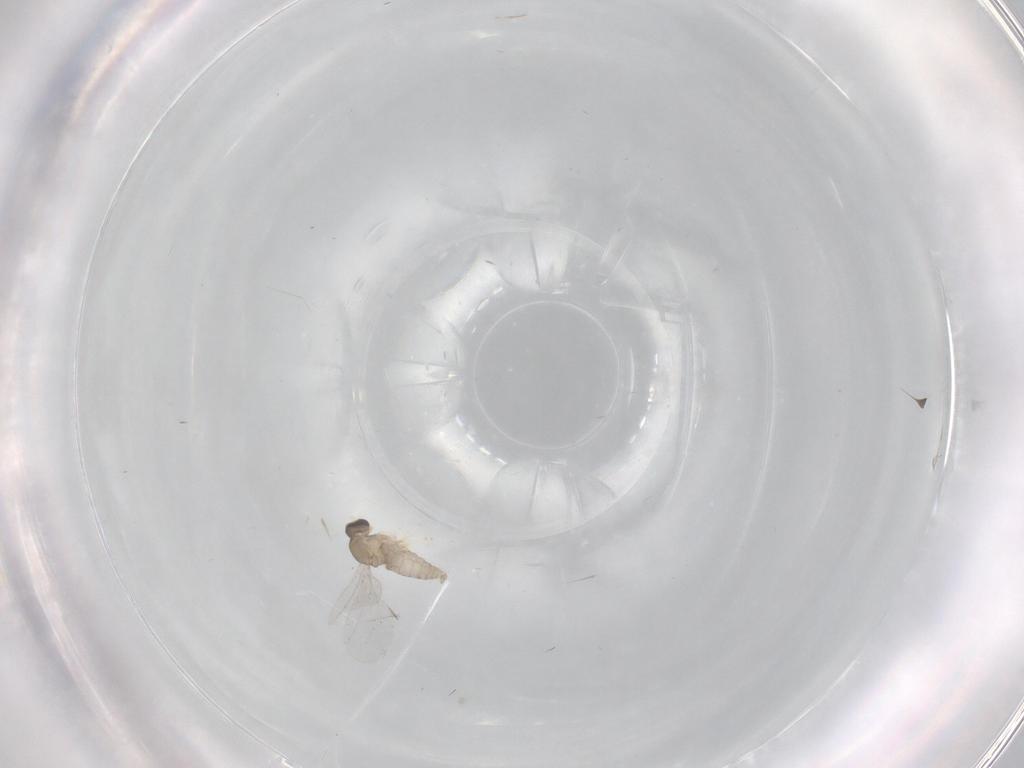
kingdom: Animalia
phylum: Arthropoda
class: Insecta
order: Diptera
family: Cecidomyiidae
